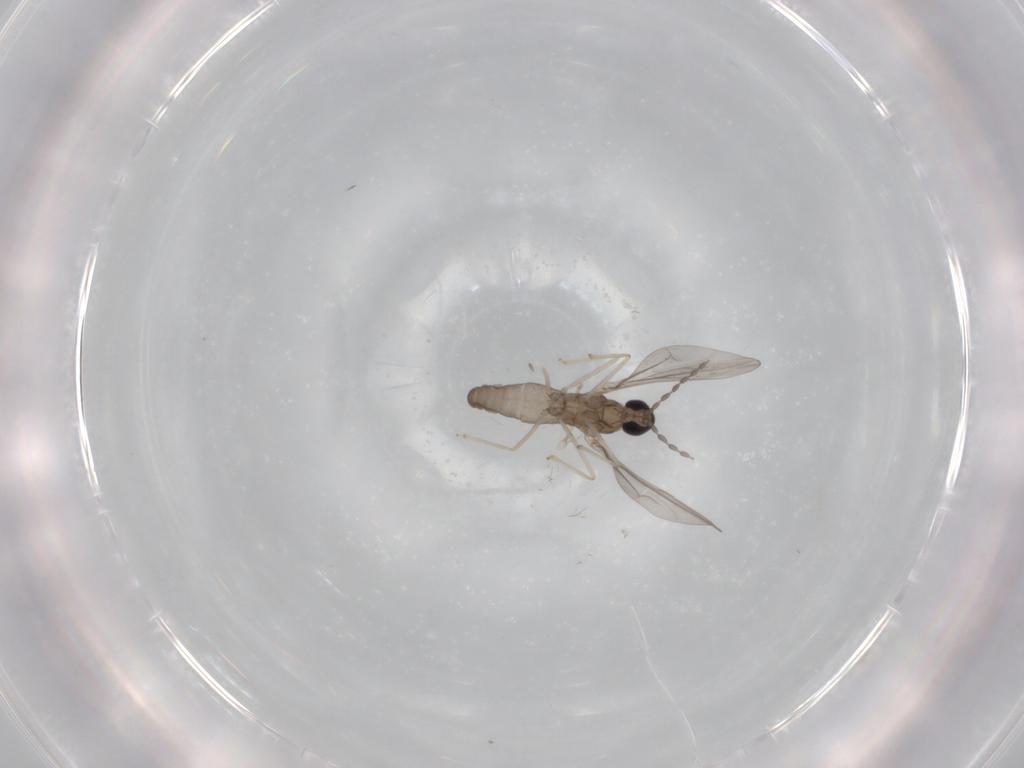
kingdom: Animalia
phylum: Arthropoda
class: Insecta
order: Diptera
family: Cecidomyiidae
